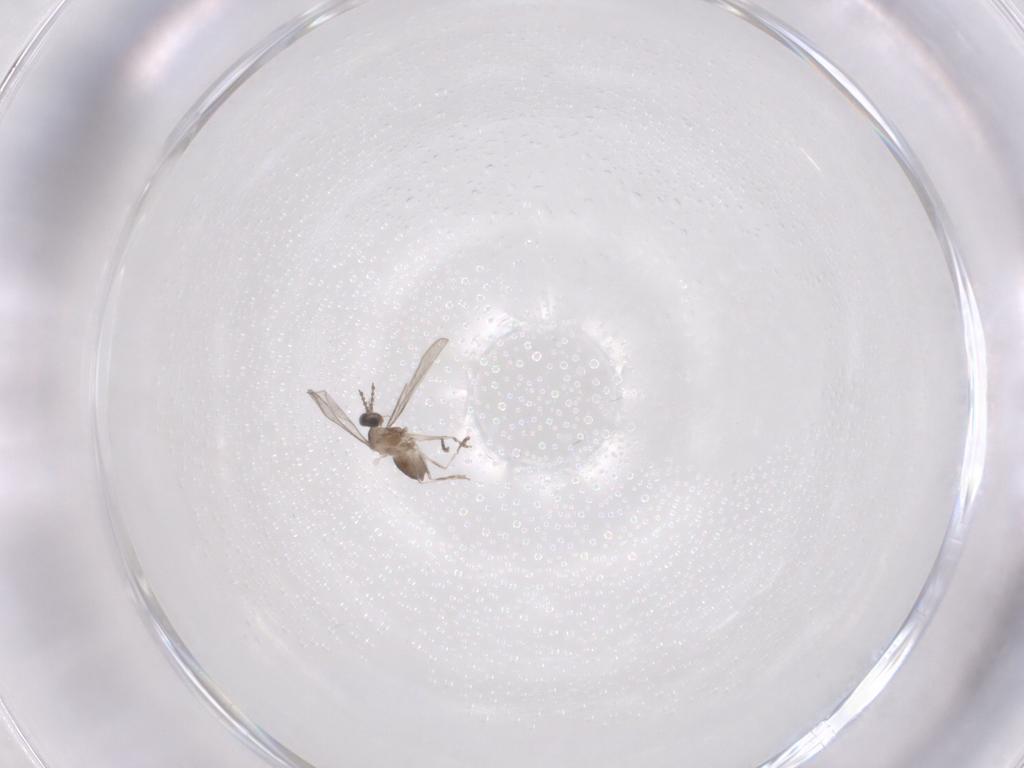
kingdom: Animalia
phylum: Arthropoda
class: Insecta
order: Diptera
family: Cecidomyiidae
